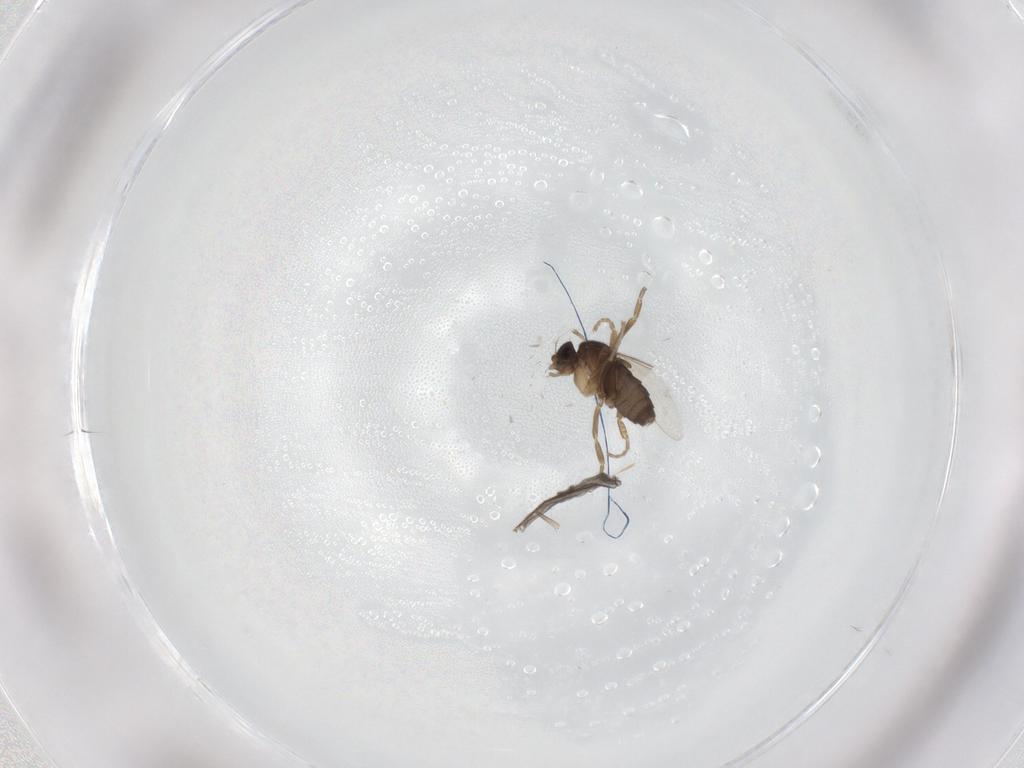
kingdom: Animalia
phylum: Arthropoda
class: Insecta
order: Diptera
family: Phoridae
